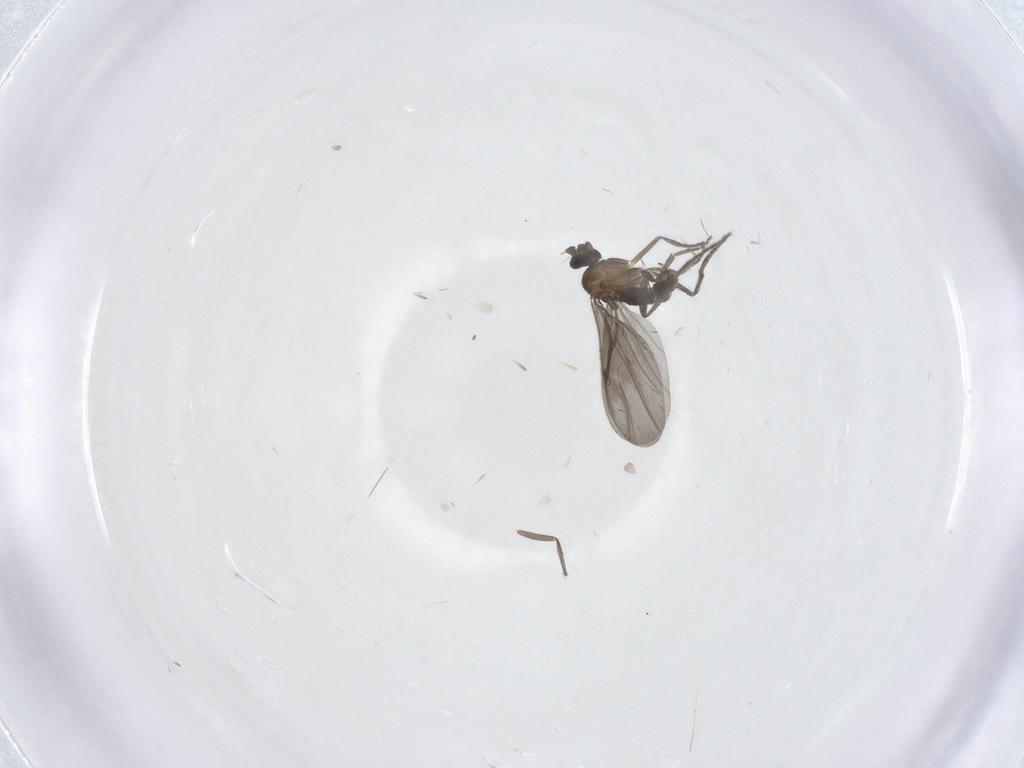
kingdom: Animalia
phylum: Arthropoda
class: Insecta
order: Diptera
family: Phoridae
